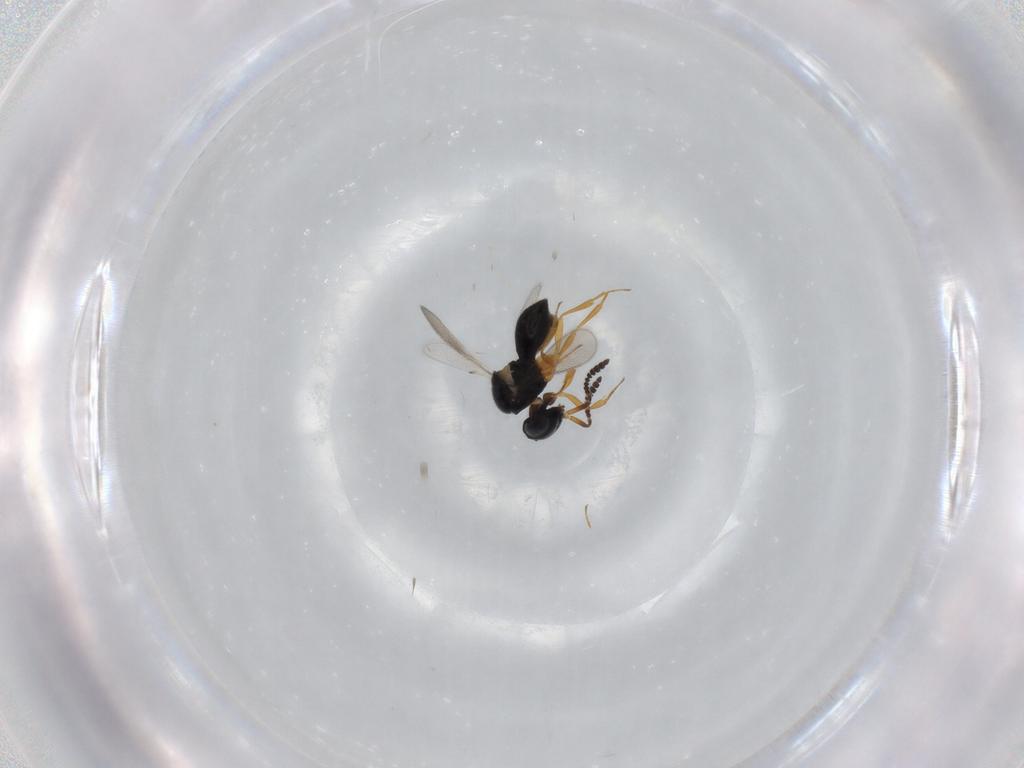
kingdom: Animalia
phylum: Arthropoda
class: Insecta
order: Hymenoptera
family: Scelionidae
